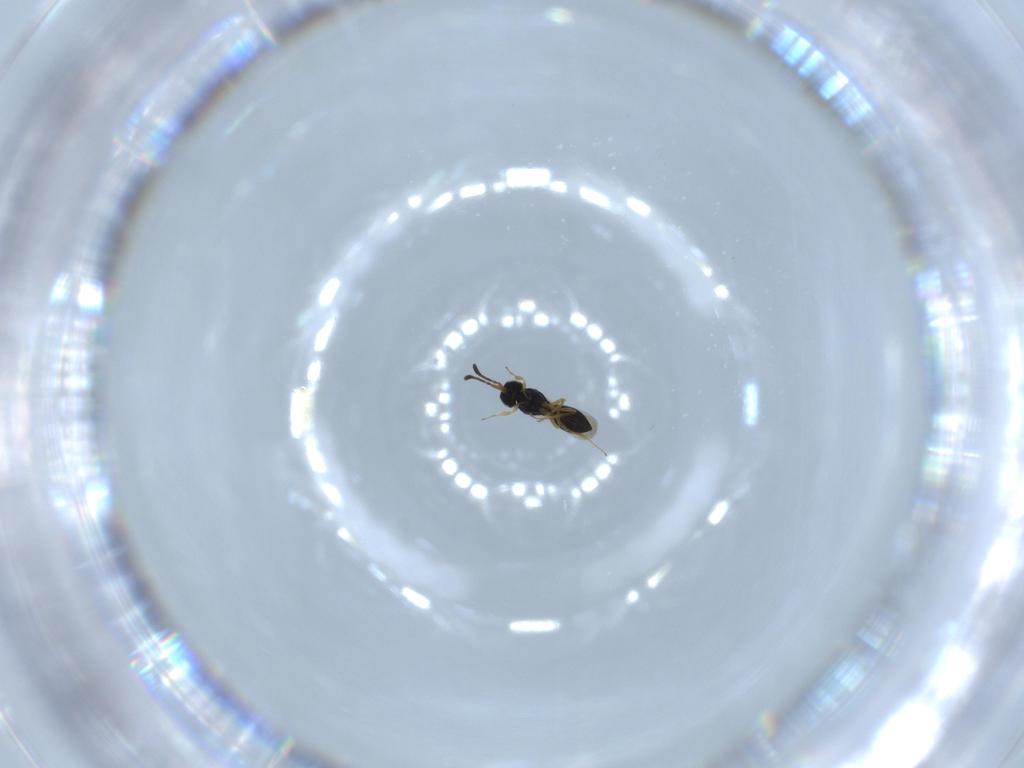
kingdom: Animalia
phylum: Arthropoda
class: Insecta
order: Hymenoptera
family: Scelionidae
